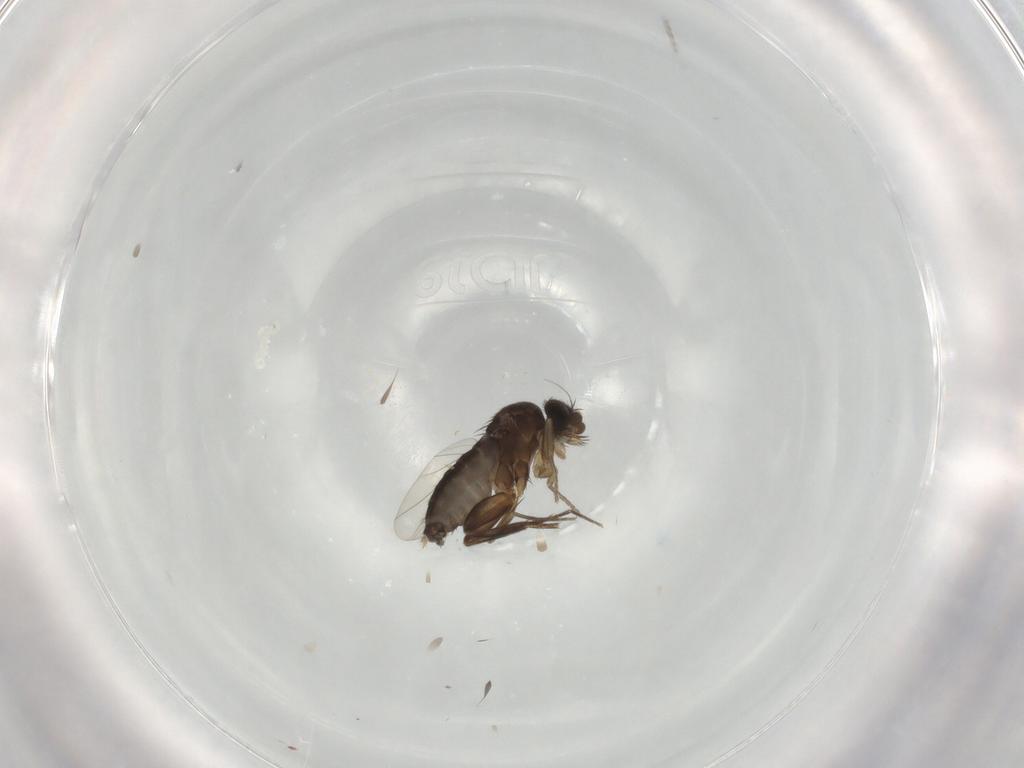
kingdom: Animalia
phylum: Arthropoda
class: Insecta
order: Diptera
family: Phoridae
